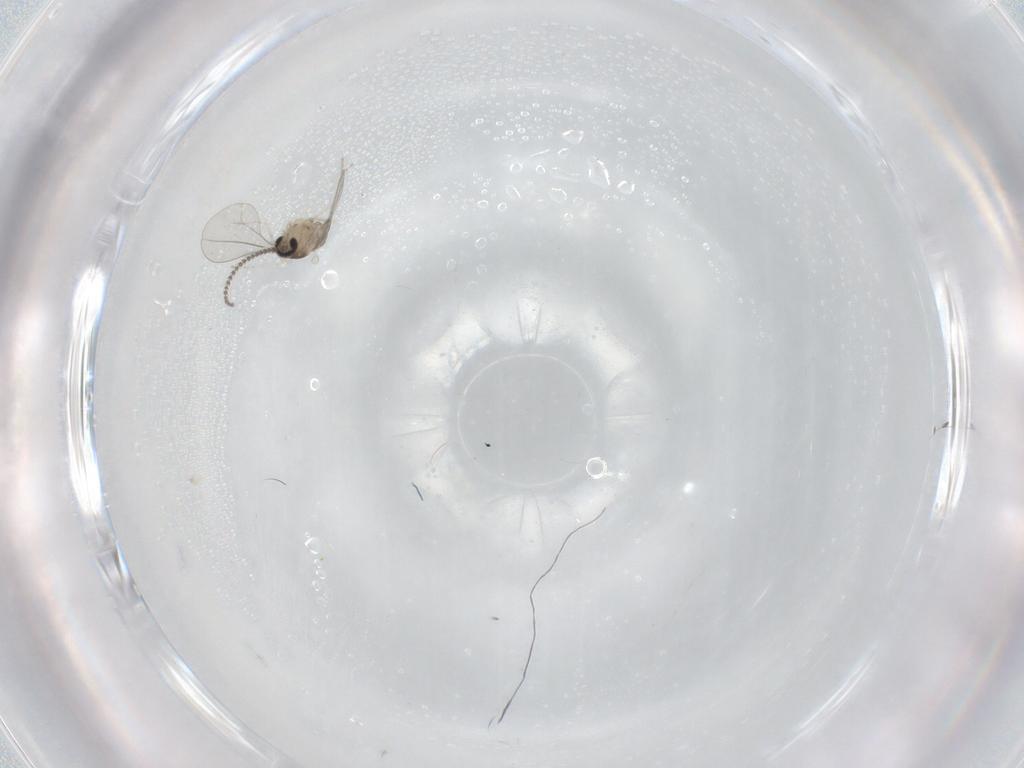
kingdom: Animalia
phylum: Arthropoda
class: Insecta
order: Diptera
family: Cecidomyiidae
